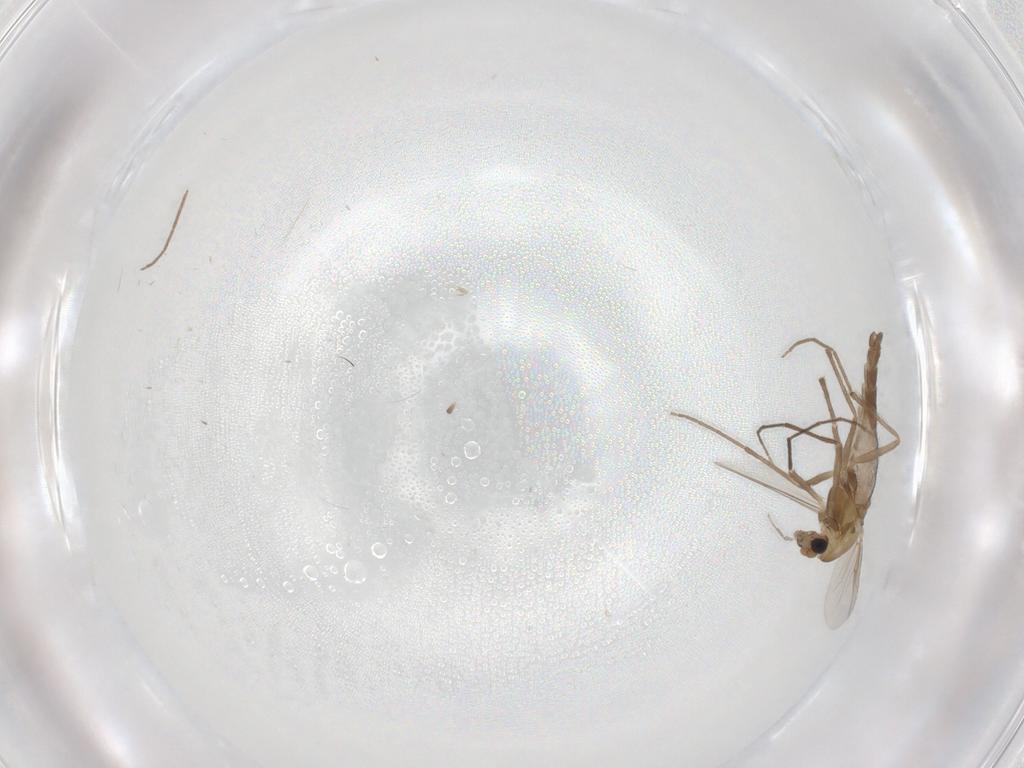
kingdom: Animalia
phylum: Arthropoda
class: Insecta
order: Diptera
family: Chironomidae
